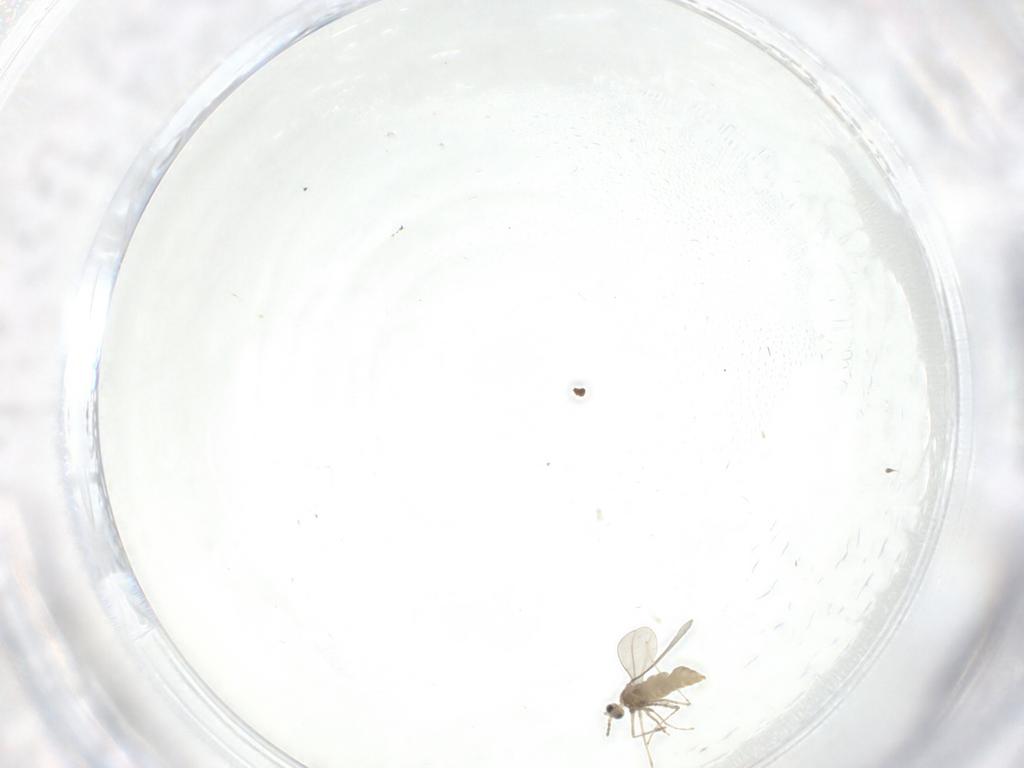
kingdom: Animalia
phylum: Arthropoda
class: Insecta
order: Diptera
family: Cecidomyiidae
